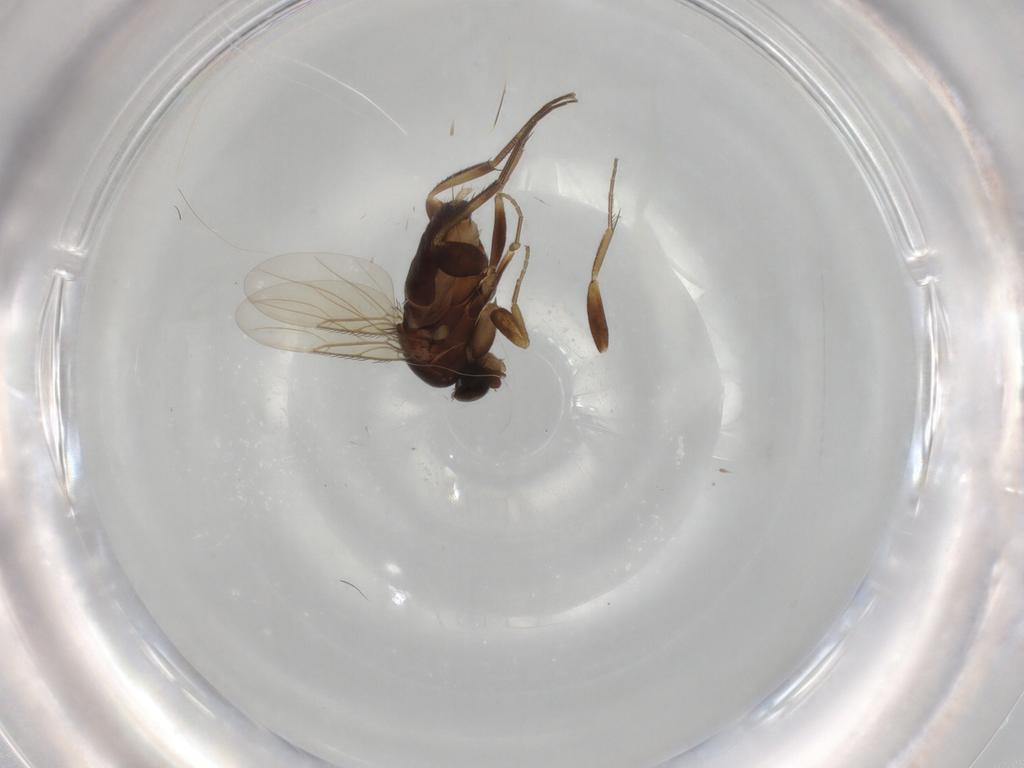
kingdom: Animalia
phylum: Arthropoda
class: Insecta
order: Diptera
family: Phoridae
